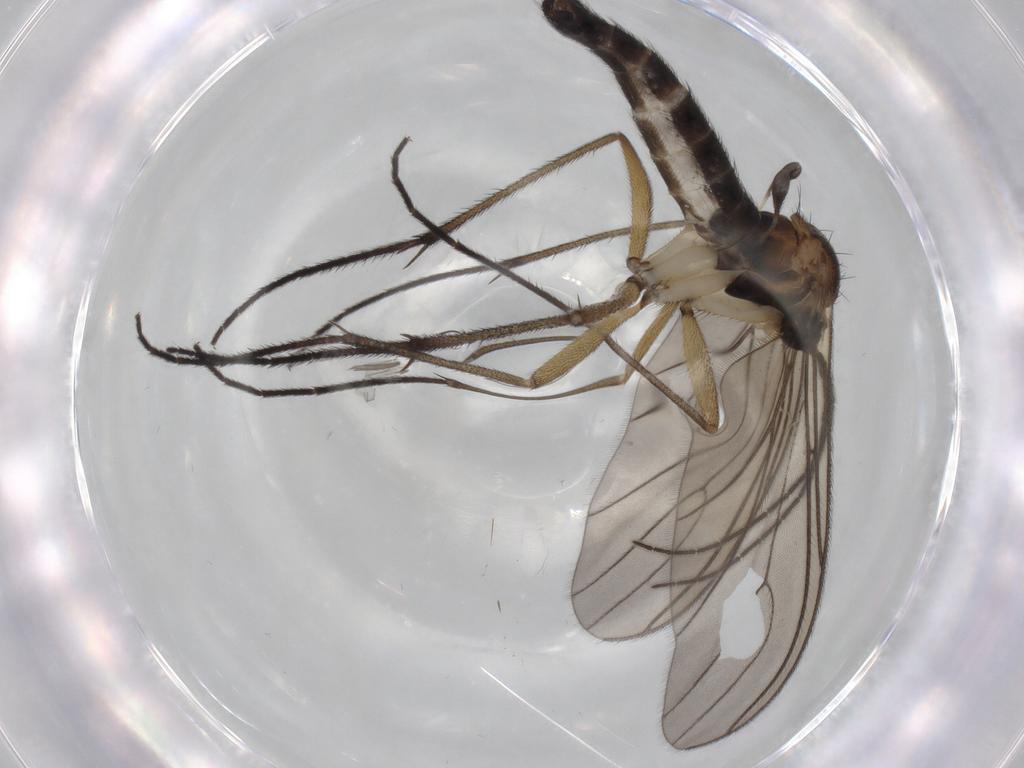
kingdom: Animalia
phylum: Arthropoda
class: Insecta
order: Diptera
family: Sciaridae
